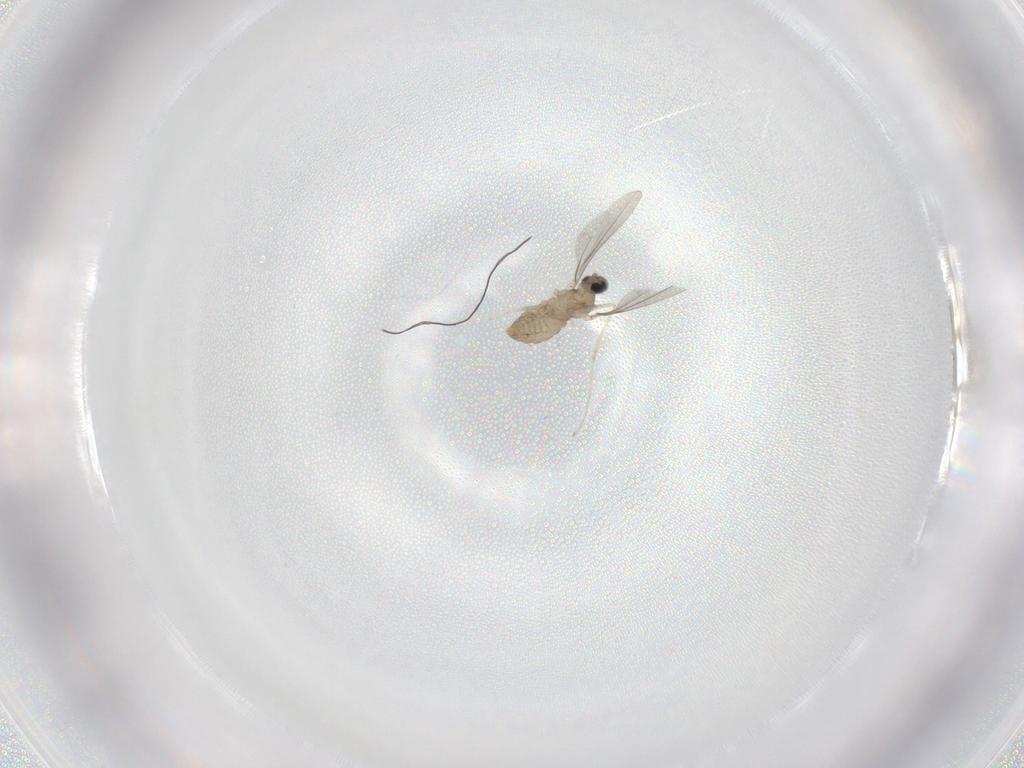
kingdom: Animalia
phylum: Arthropoda
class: Insecta
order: Diptera
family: Cecidomyiidae
